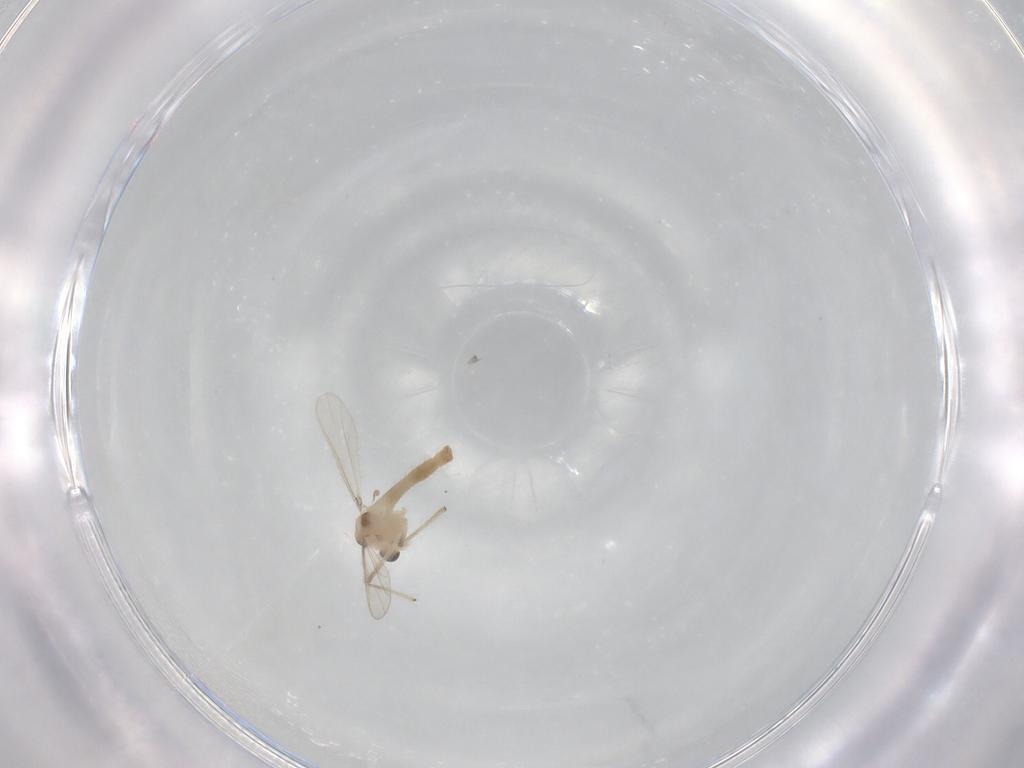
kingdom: Animalia
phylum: Arthropoda
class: Insecta
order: Diptera
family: Chironomidae
